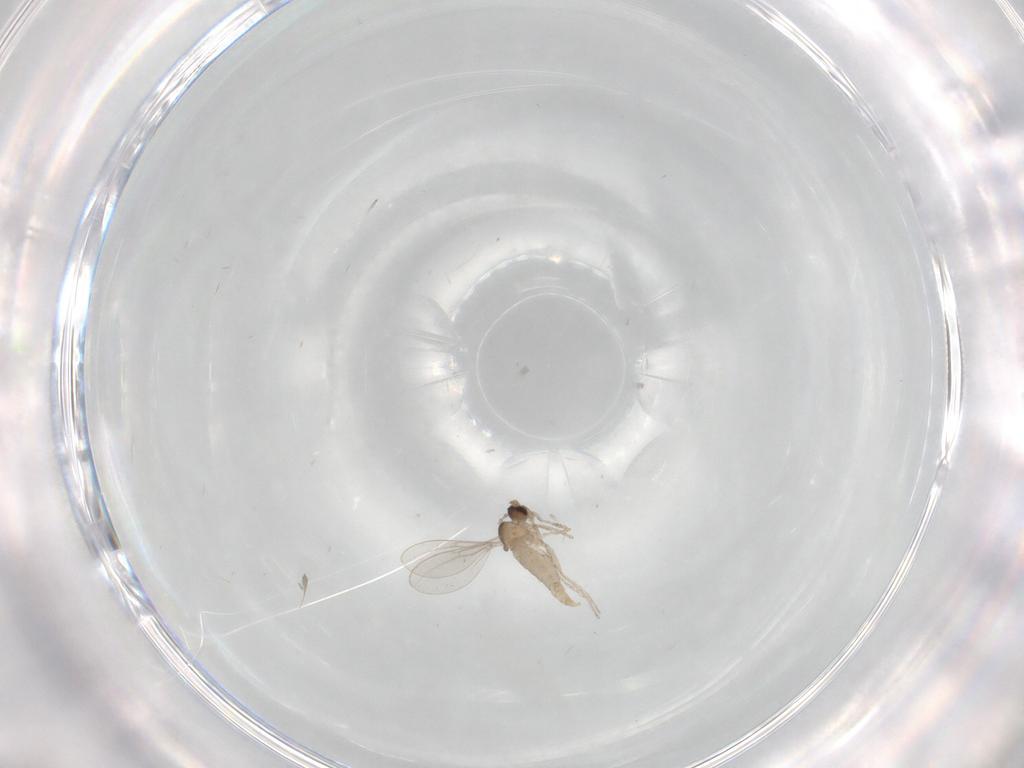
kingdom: Animalia
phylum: Arthropoda
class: Insecta
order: Diptera
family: Cecidomyiidae
